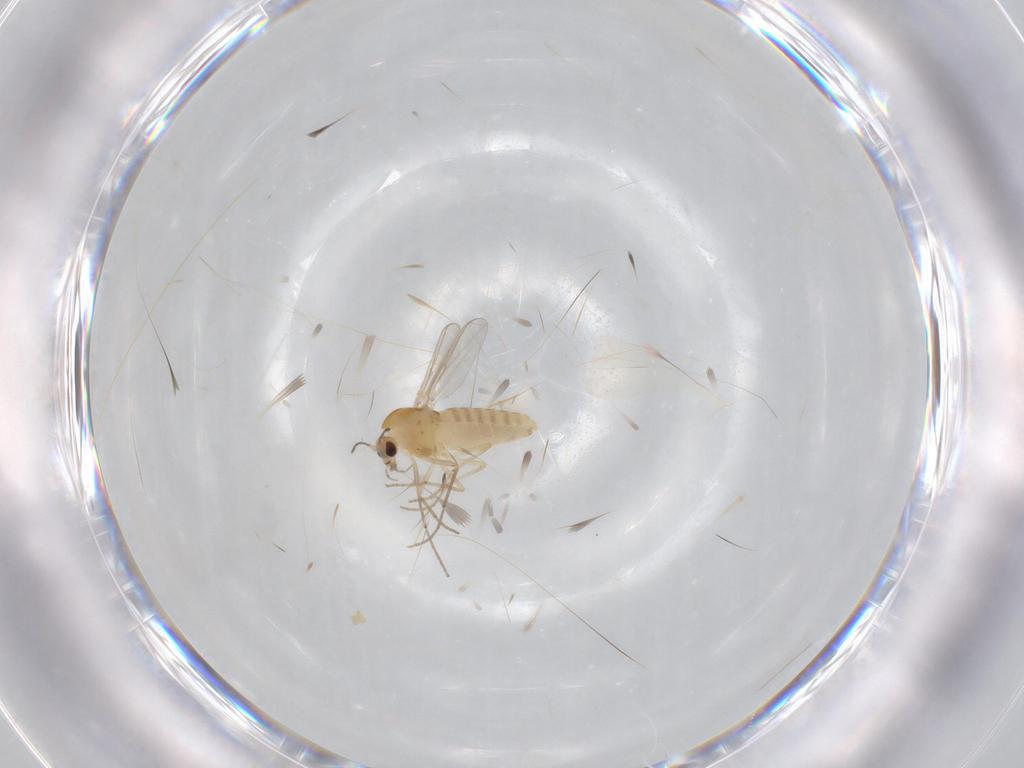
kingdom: Animalia
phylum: Arthropoda
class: Insecta
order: Diptera
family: Chironomidae
